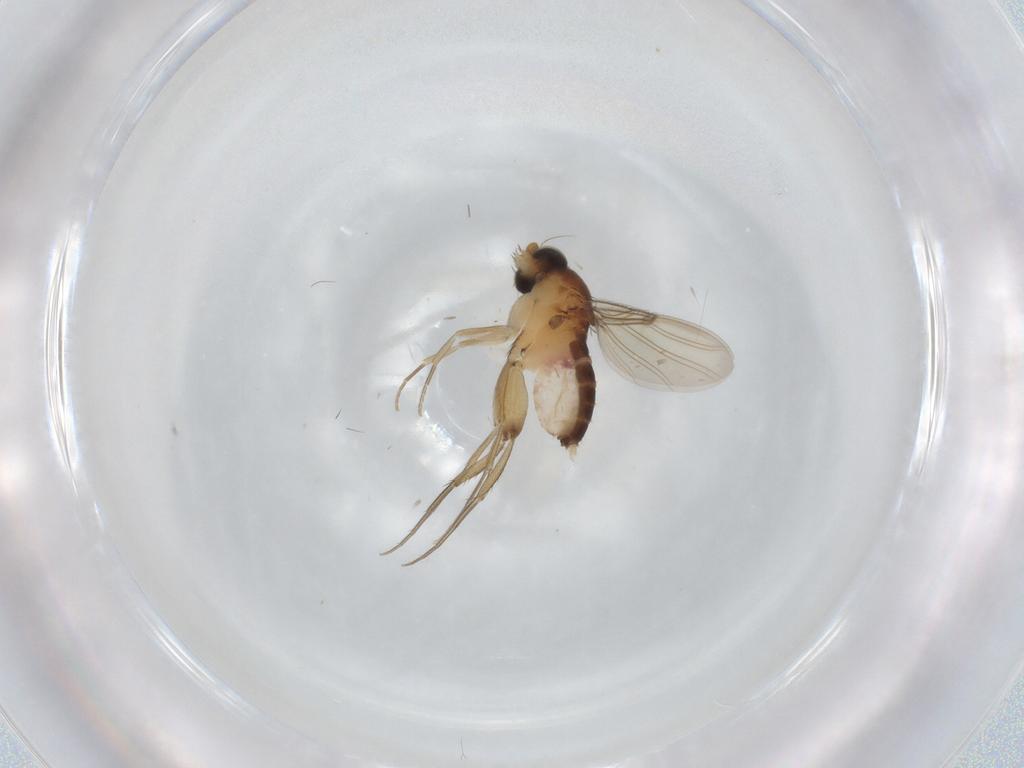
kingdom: Animalia
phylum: Arthropoda
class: Insecta
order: Diptera
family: Phoridae
